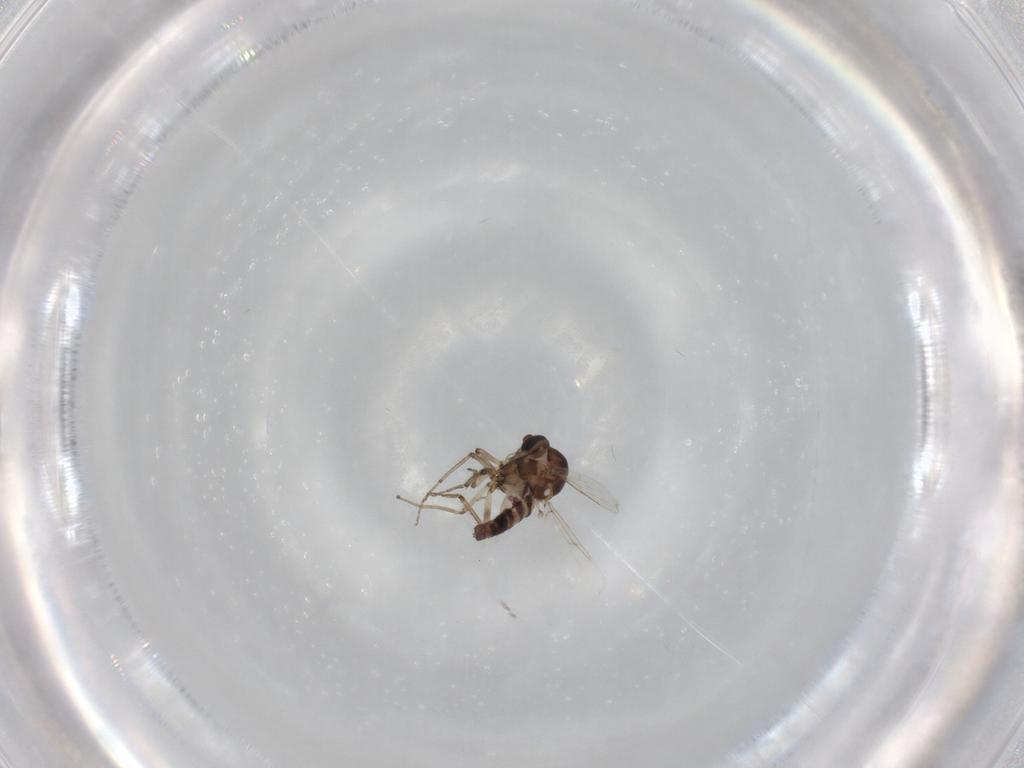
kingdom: Animalia
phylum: Arthropoda
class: Insecta
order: Diptera
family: Ceratopogonidae
